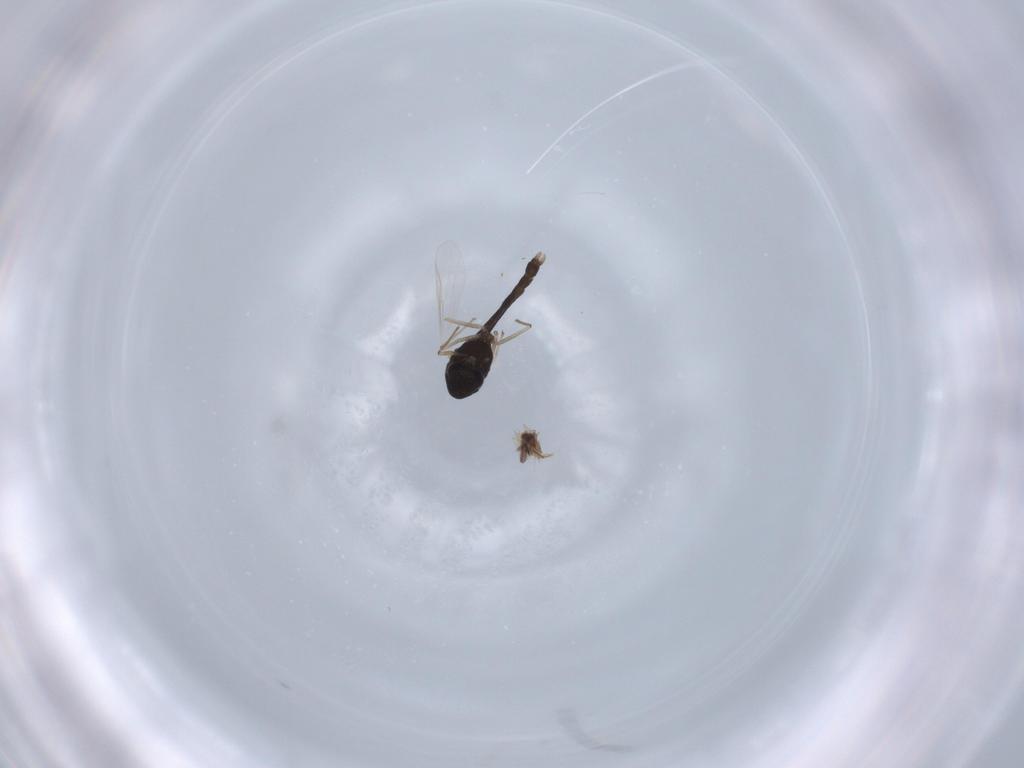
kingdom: Animalia
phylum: Arthropoda
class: Insecta
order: Diptera
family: Chironomidae
